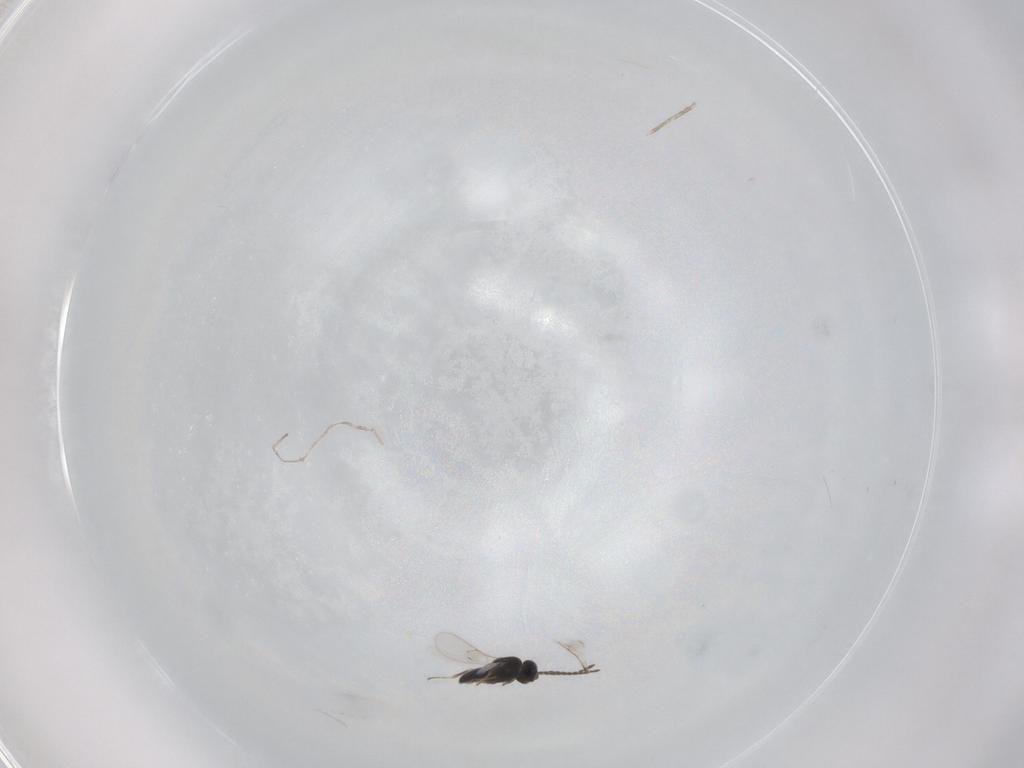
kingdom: Animalia
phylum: Arthropoda
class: Insecta
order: Hymenoptera
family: Scelionidae
